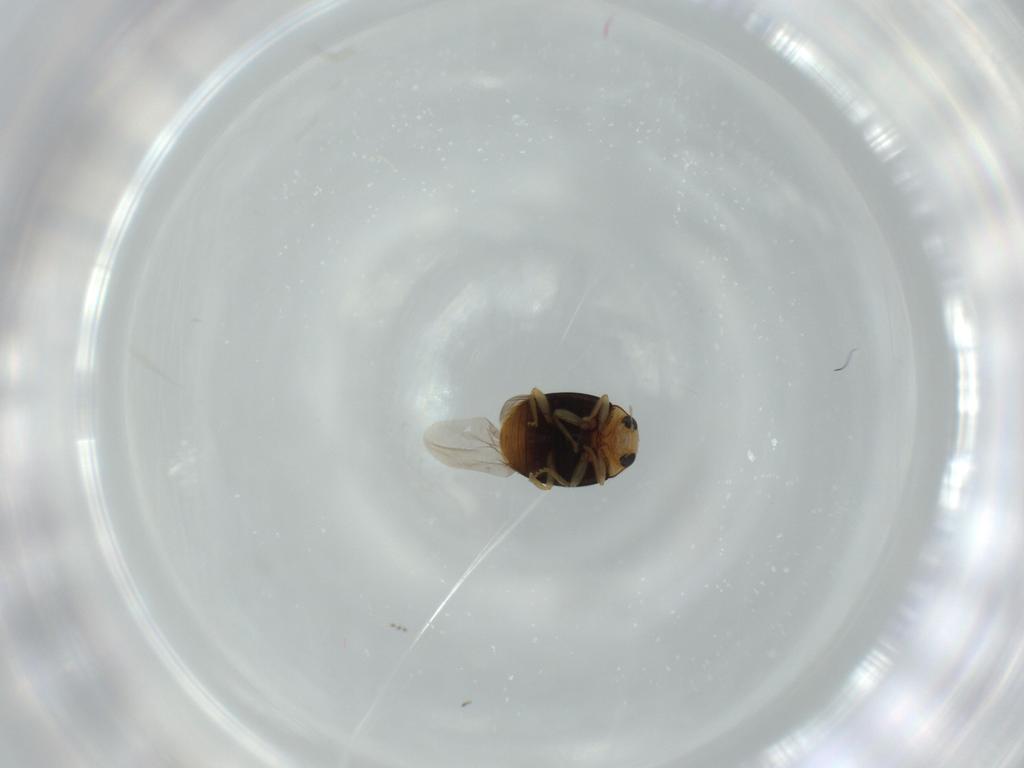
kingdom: Animalia
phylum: Arthropoda
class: Insecta
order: Coleoptera
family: Coccinellidae
